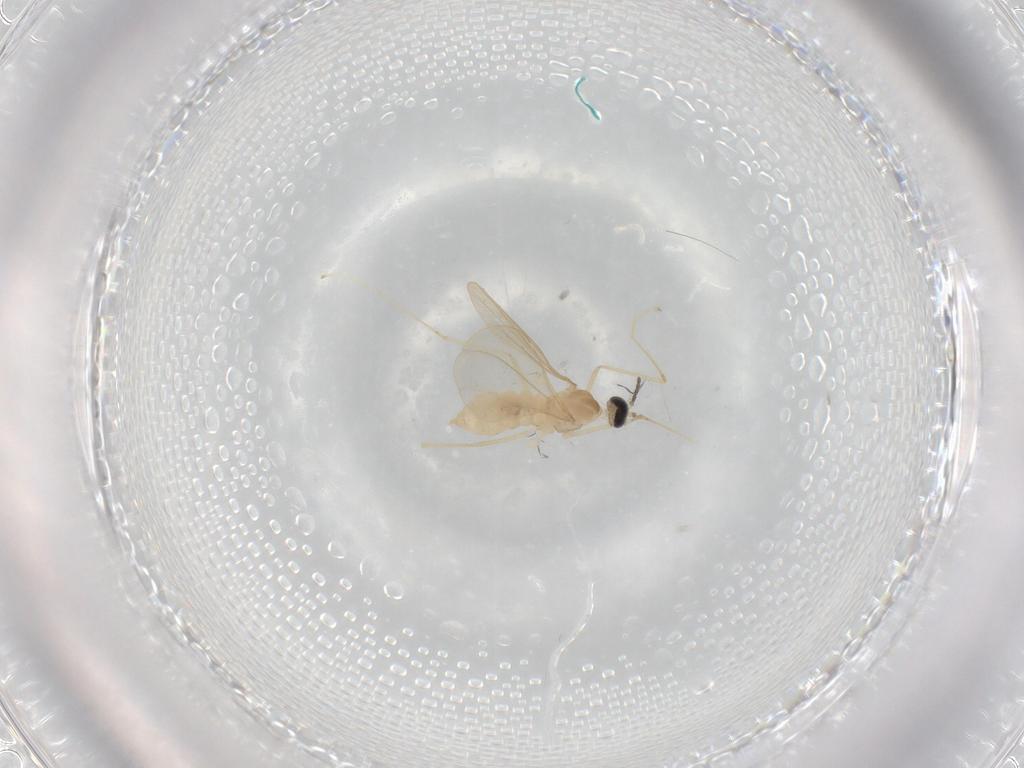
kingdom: Animalia
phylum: Arthropoda
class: Insecta
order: Diptera
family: Cecidomyiidae
